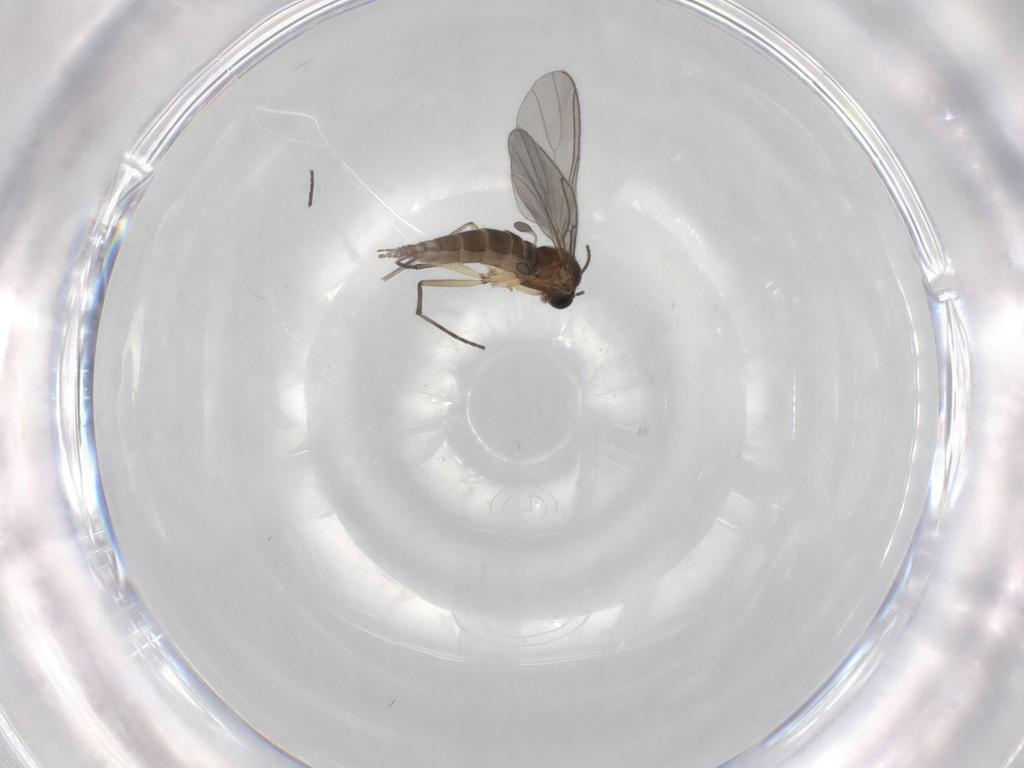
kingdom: Animalia
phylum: Arthropoda
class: Insecta
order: Diptera
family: Sciaridae
